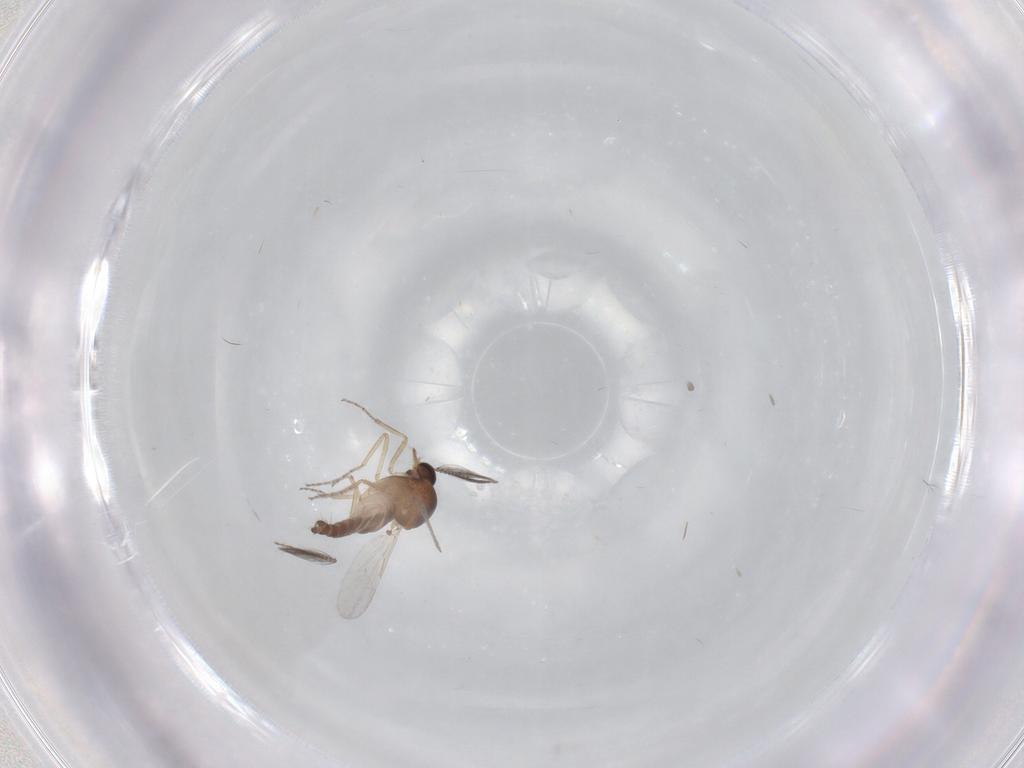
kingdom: Animalia
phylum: Arthropoda
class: Insecta
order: Diptera
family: Ceratopogonidae
